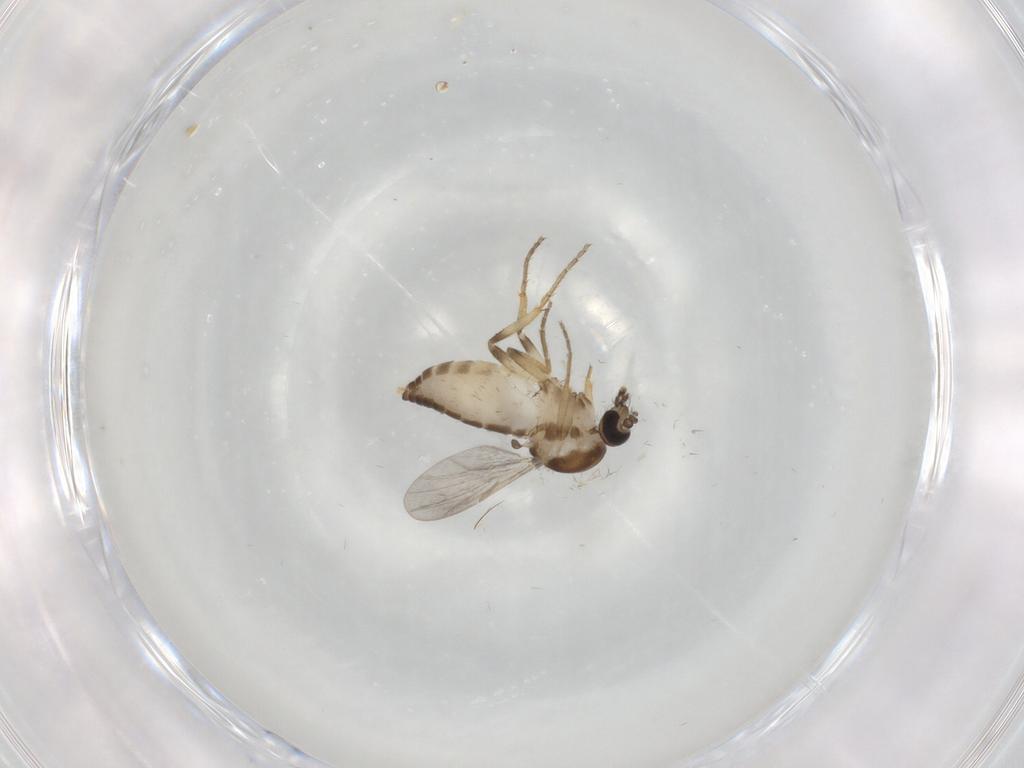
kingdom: Animalia
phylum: Arthropoda
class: Insecta
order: Diptera
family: Ceratopogonidae
